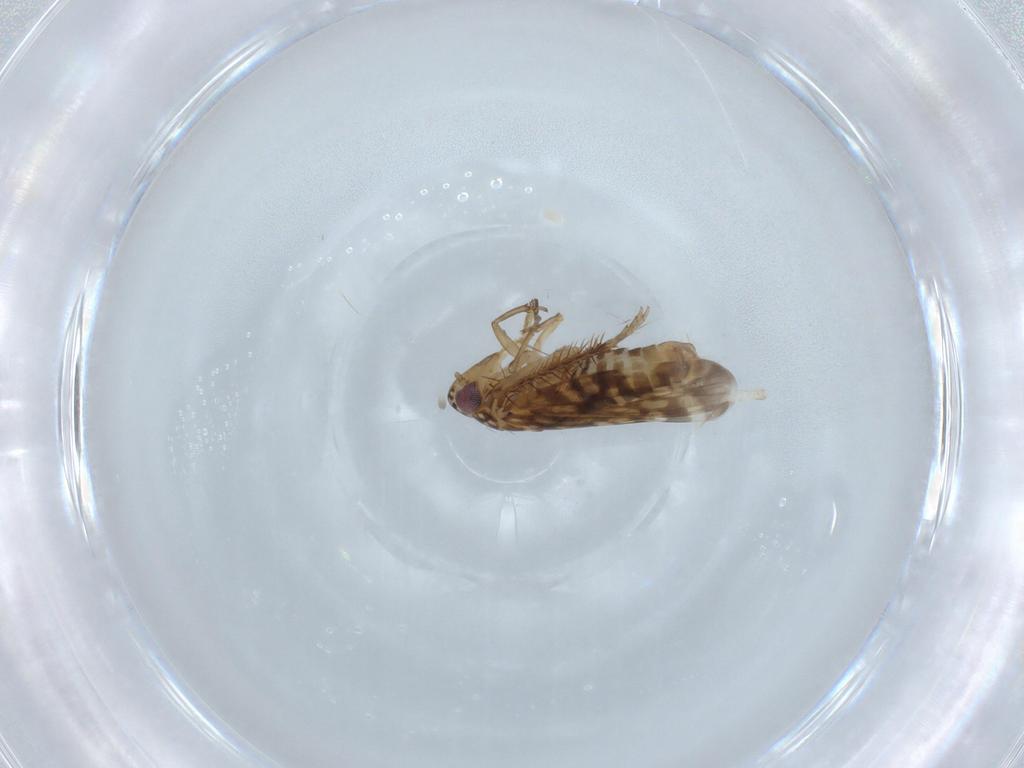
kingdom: Animalia
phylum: Arthropoda
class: Insecta
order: Hemiptera
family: Cicadellidae
